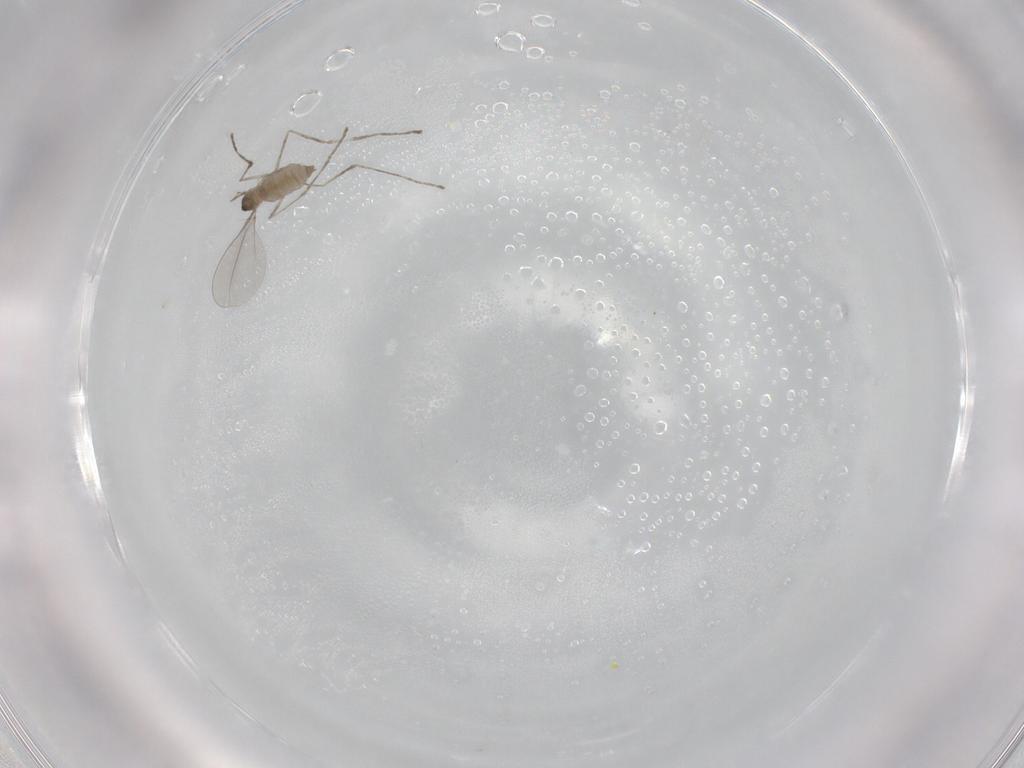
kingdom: Animalia
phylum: Arthropoda
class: Insecta
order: Diptera
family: Cecidomyiidae
